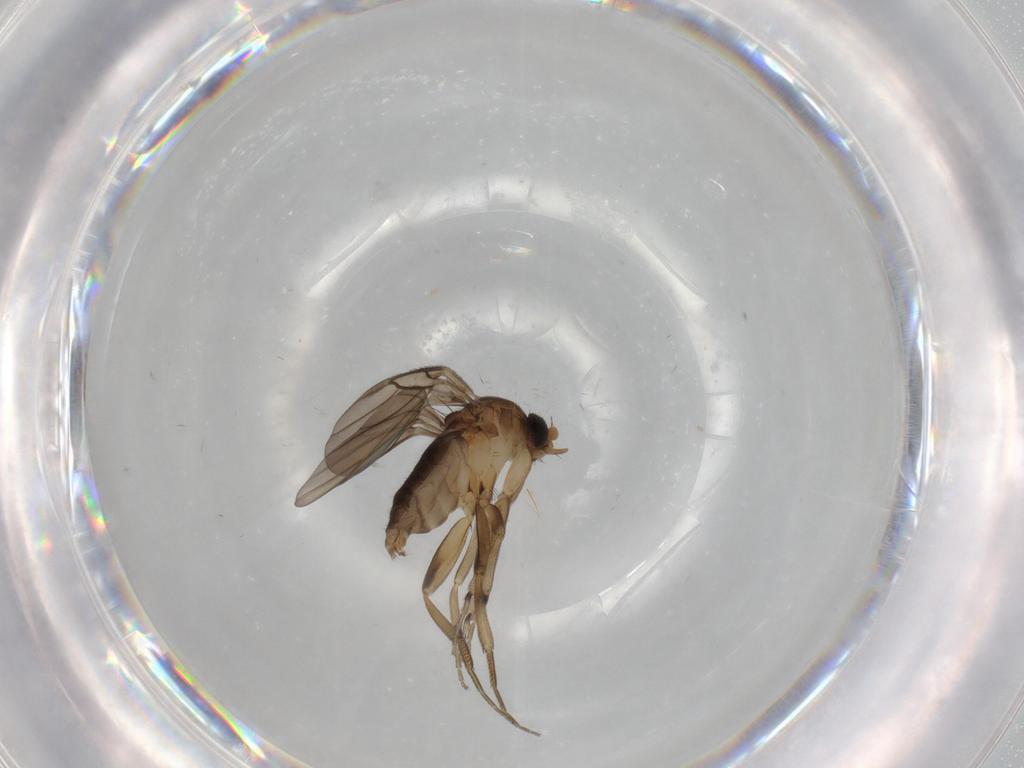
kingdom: Animalia
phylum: Arthropoda
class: Insecta
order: Diptera
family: Phoridae
